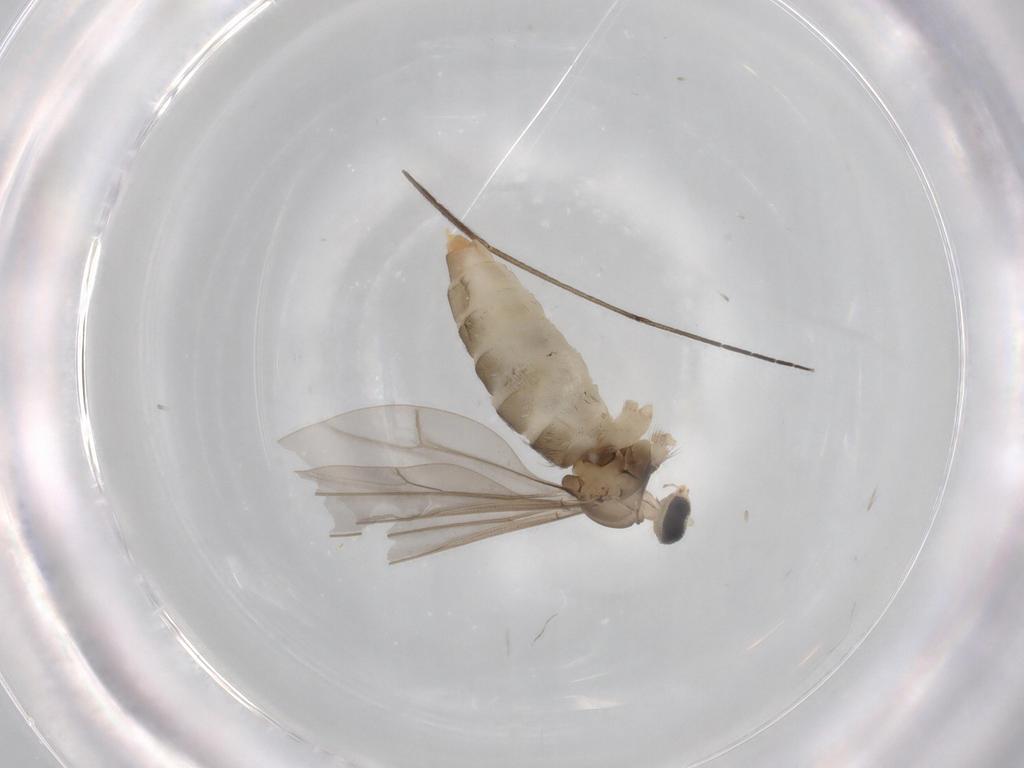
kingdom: Animalia
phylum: Arthropoda
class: Insecta
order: Diptera
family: Cecidomyiidae
